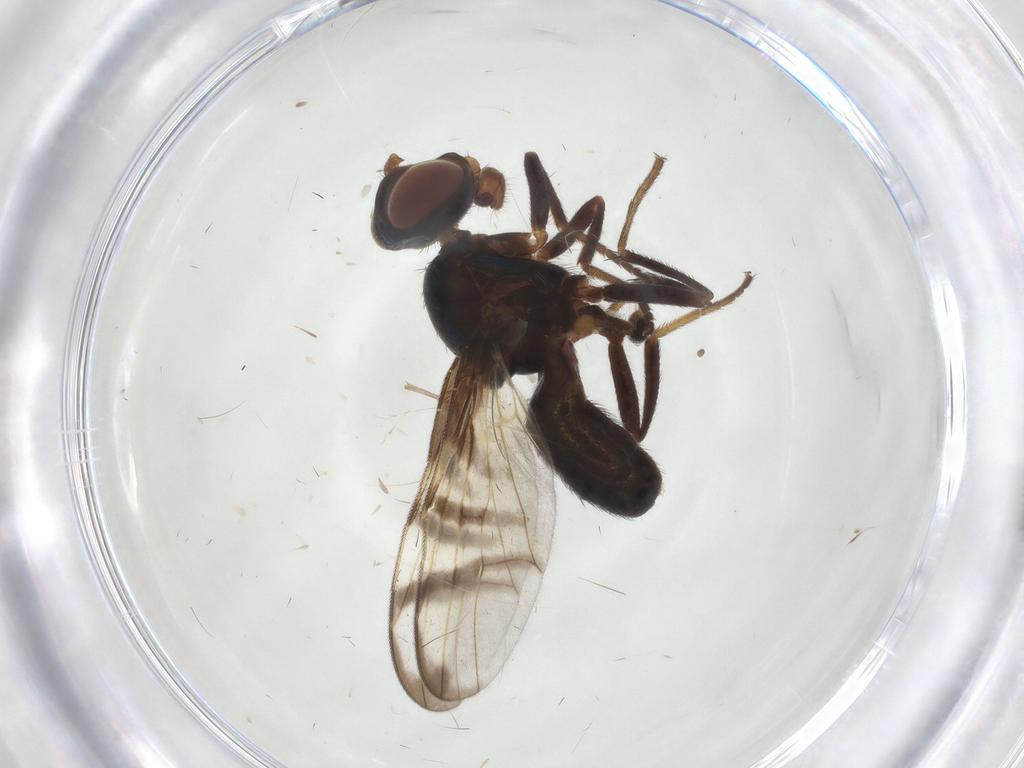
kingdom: Animalia
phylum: Arthropoda
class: Insecta
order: Diptera
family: Cecidomyiidae
